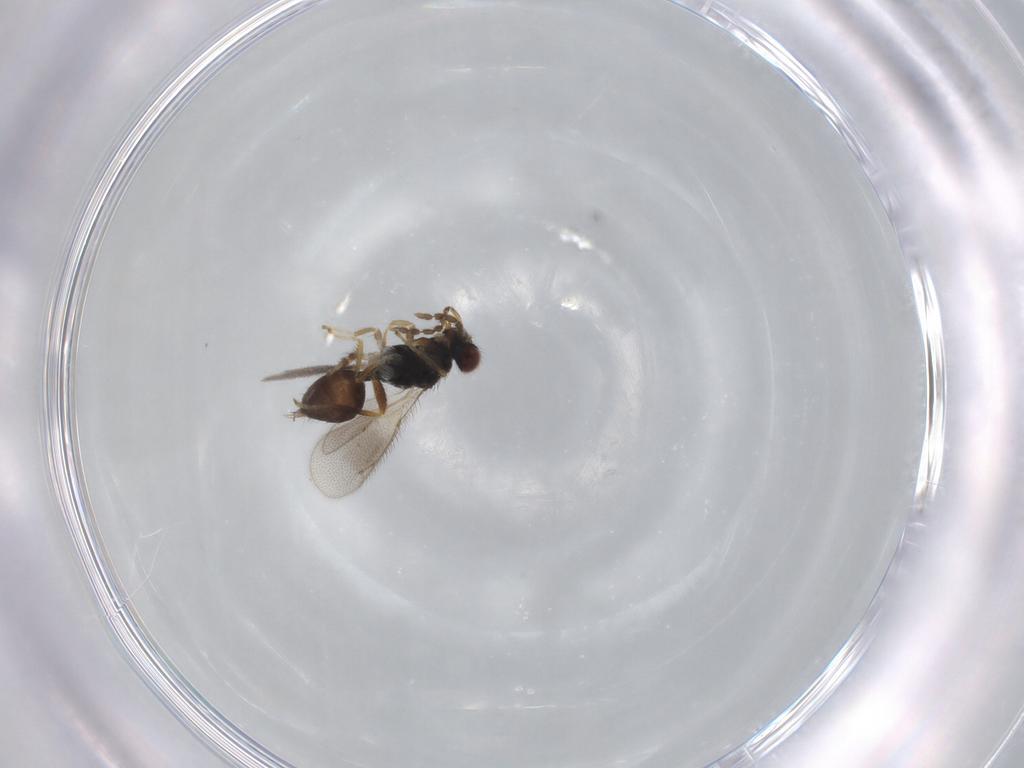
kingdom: Animalia
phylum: Arthropoda
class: Insecta
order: Hymenoptera
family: Eulophidae
